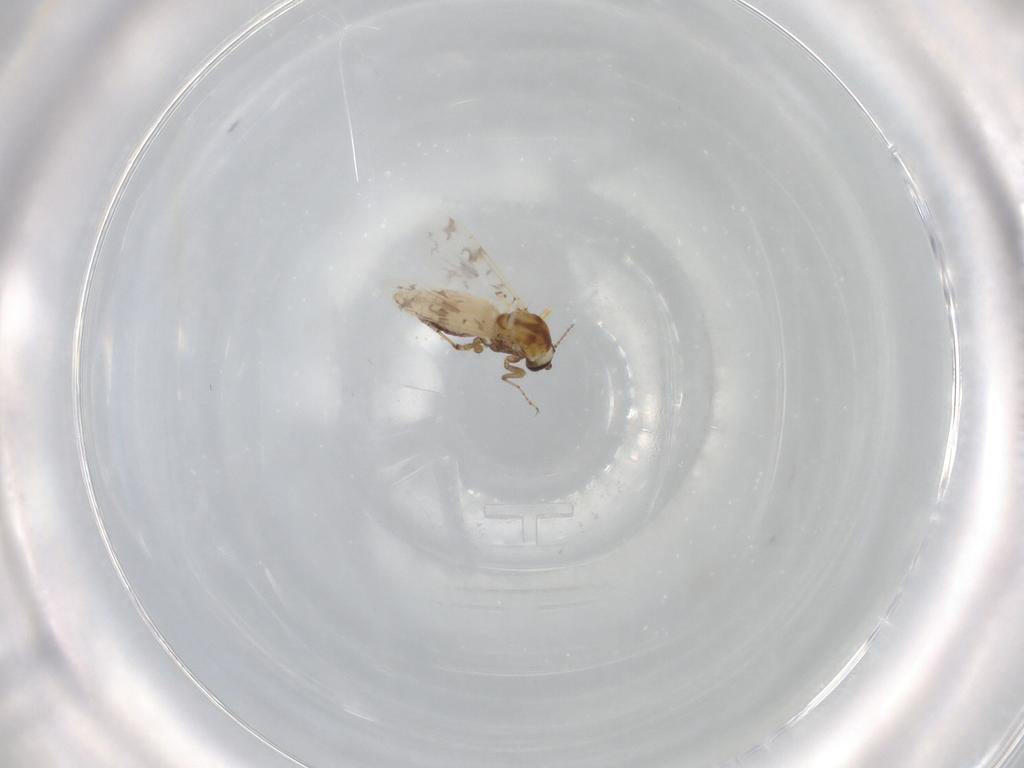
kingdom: Animalia
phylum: Arthropoda
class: Insecta
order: Diptera
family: Ceratopogonidae
